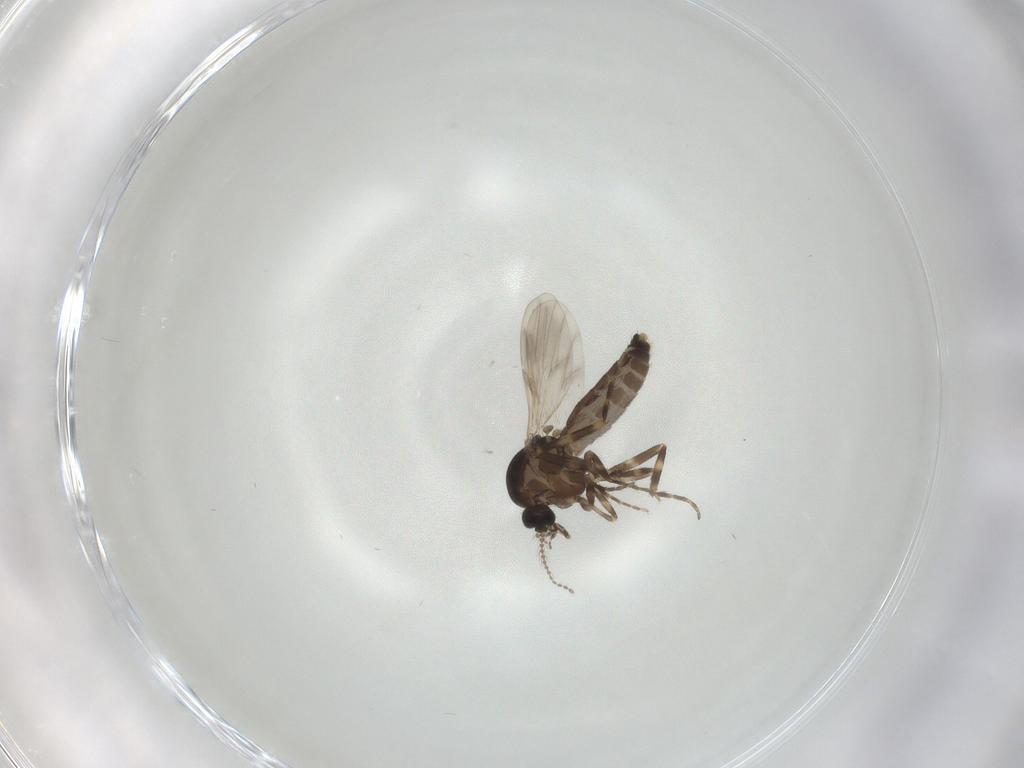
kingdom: Animalia
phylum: Arthropoda
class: Insecta
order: Diptera
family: Ceratopogonidae
